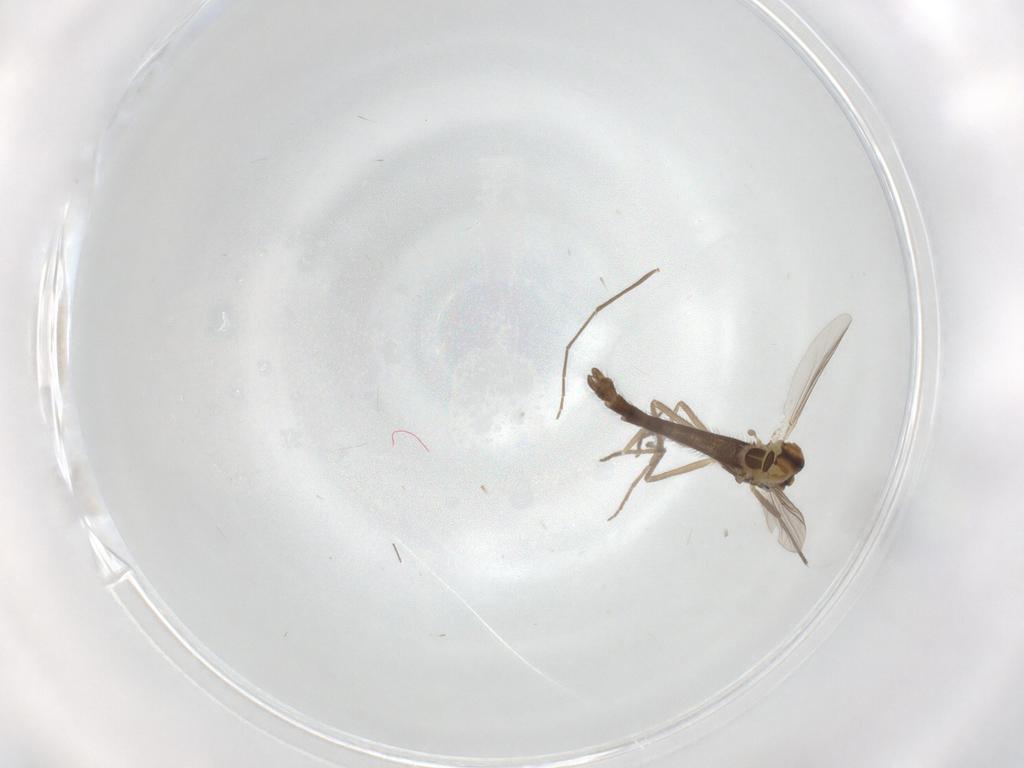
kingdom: Animalia
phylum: Arthropoda
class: Insecta
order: Diptera
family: Chironomidae
